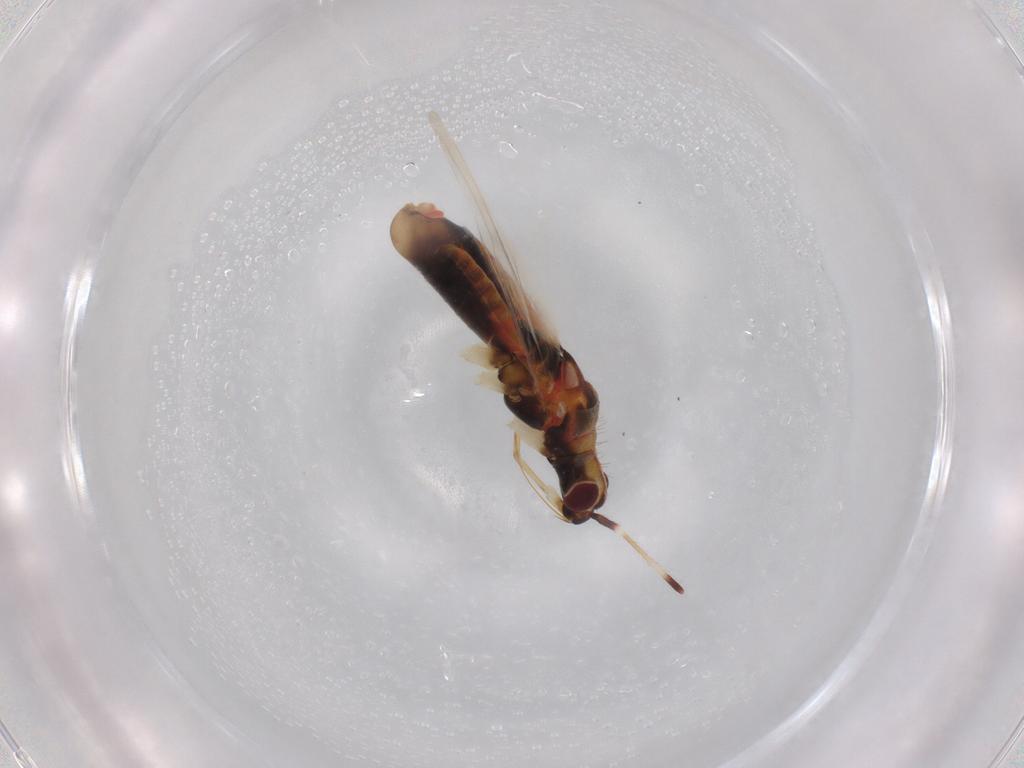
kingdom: Animalia
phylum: Arthropoda
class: Insecta
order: Hemiptera
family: Miridae
